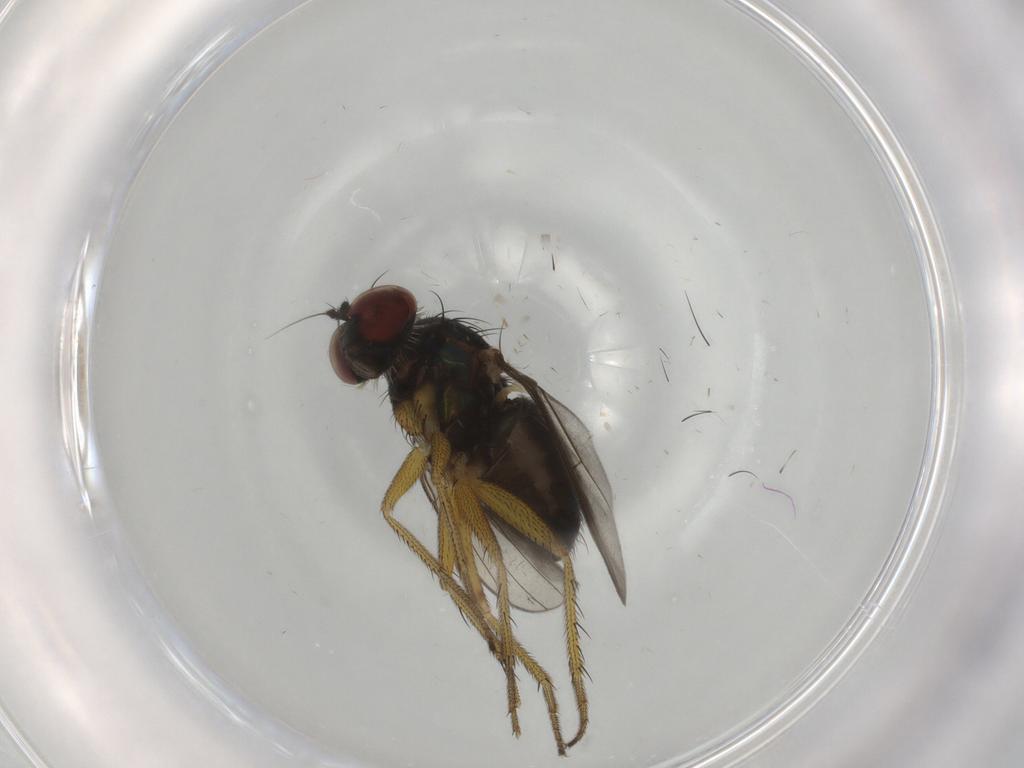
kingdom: Animalia
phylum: Arthropoda
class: Insecta
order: Diptera
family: Dolichopodidae
